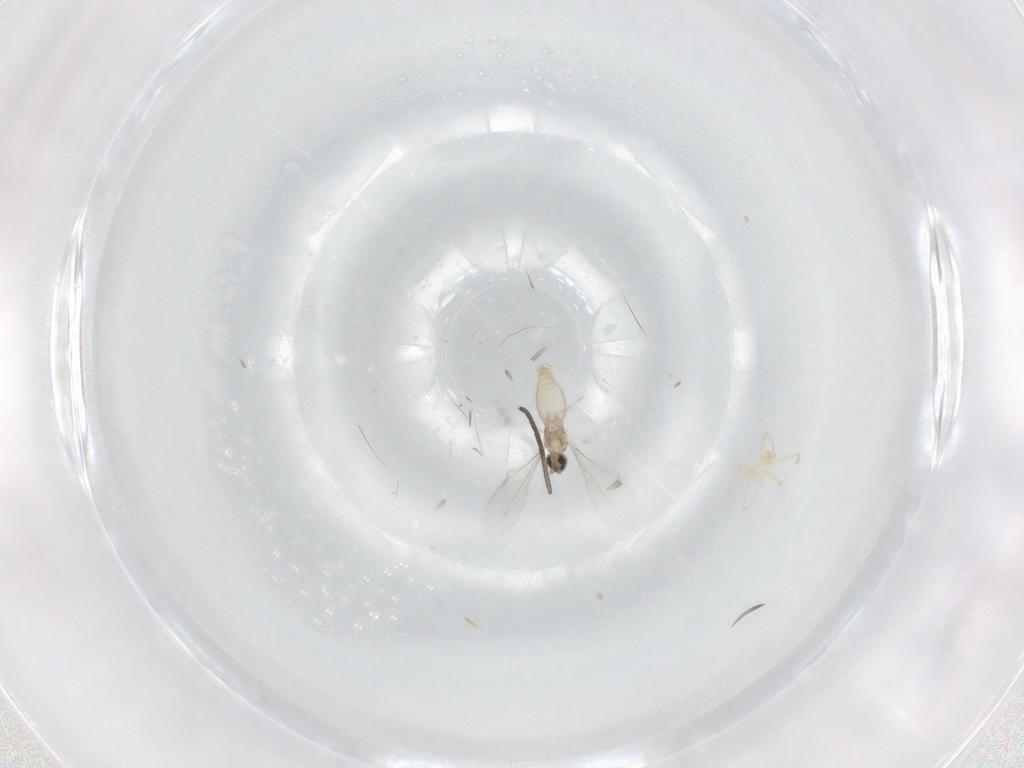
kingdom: Animalia
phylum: Arthropoda
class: Insecta
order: Diptera
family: Cecidomyiidae
